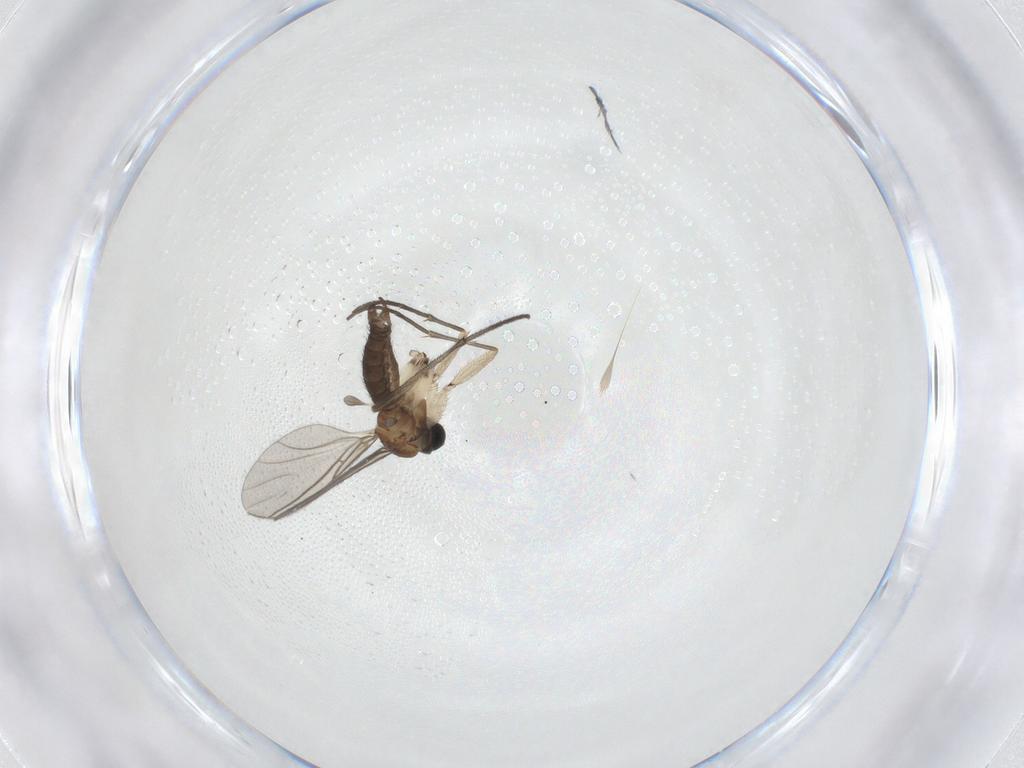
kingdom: Animalia
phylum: Arthropoda
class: Insecta
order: Diptera
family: Sciaridae
